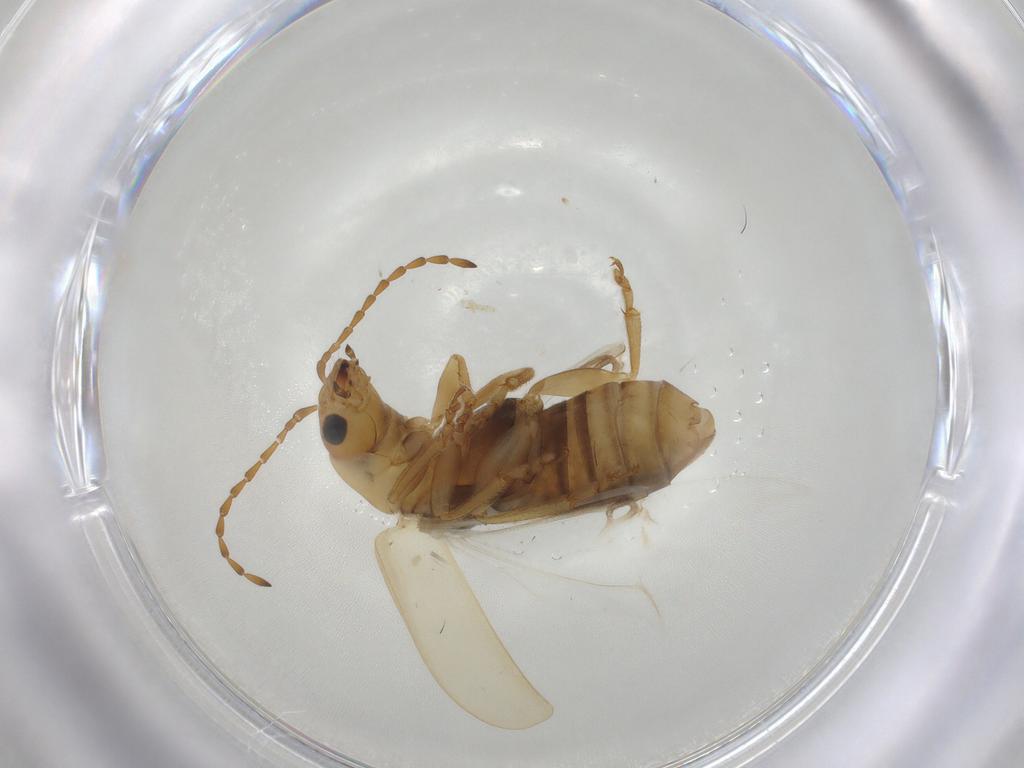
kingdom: Animalia
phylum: Arthropoda
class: Insecta
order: Coleoptera
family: Chrysomelidae
